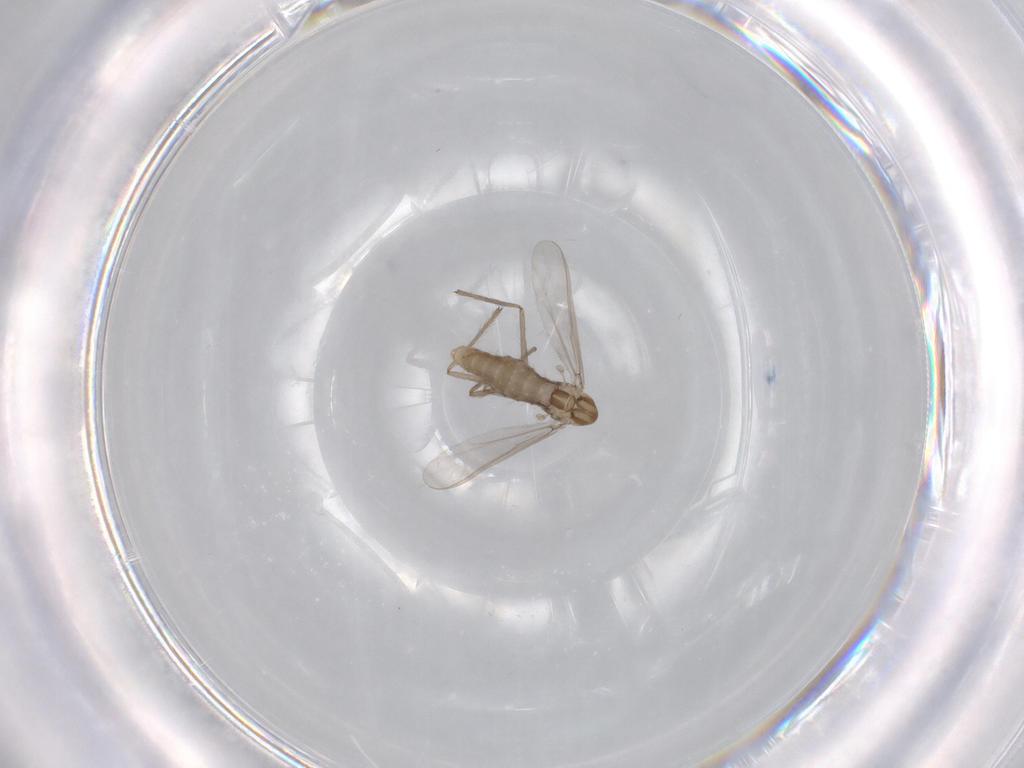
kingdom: Animalia
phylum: Arthropoda
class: Insecta
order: Diptera
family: Chironomidae
